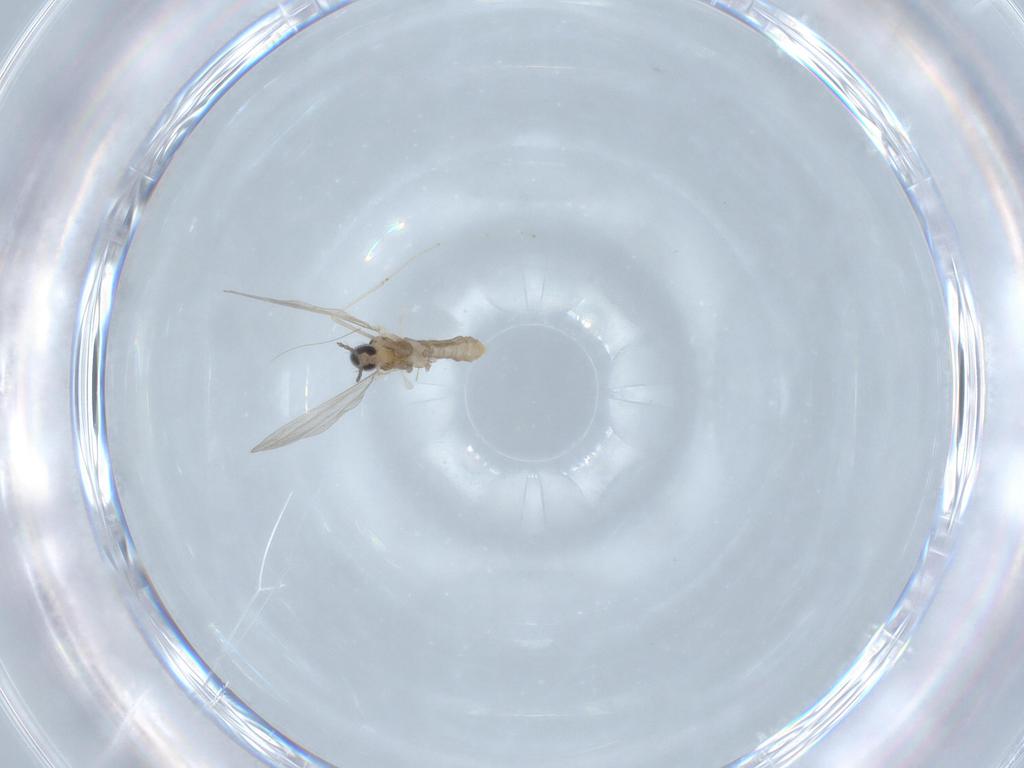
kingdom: Animalia
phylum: Arthropoda
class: Insecta
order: Diptera
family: Cecidomyiidae
